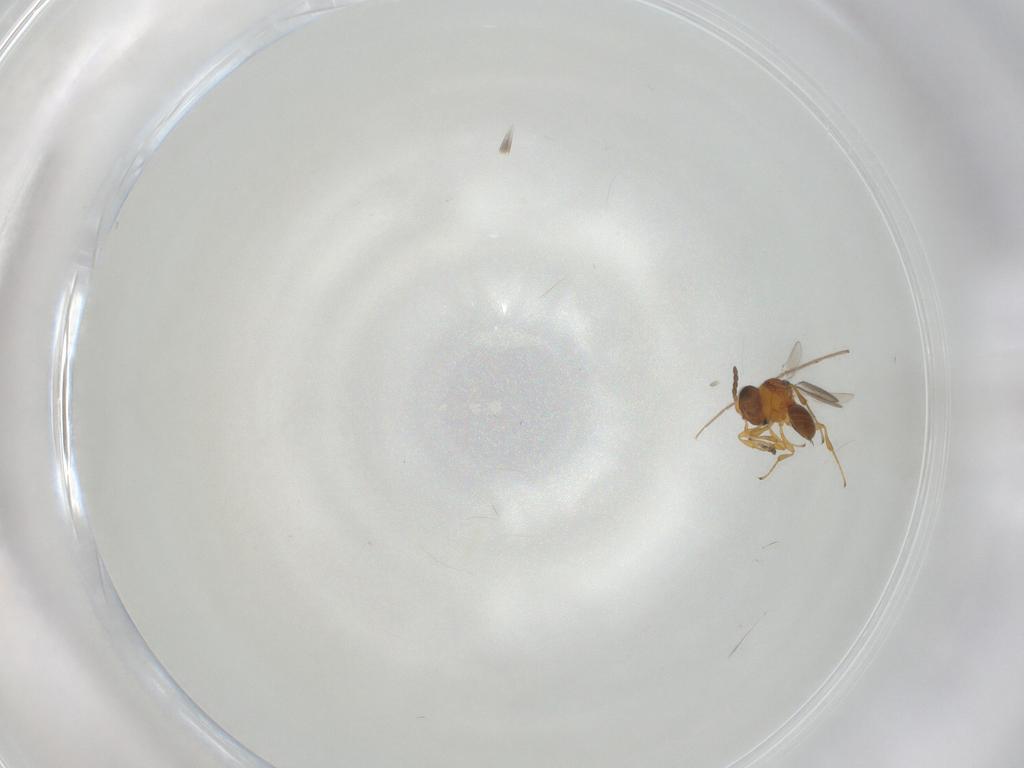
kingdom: Animalia
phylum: Arthropoda
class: Insecta
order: Hymenoptera
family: Platygastridae
